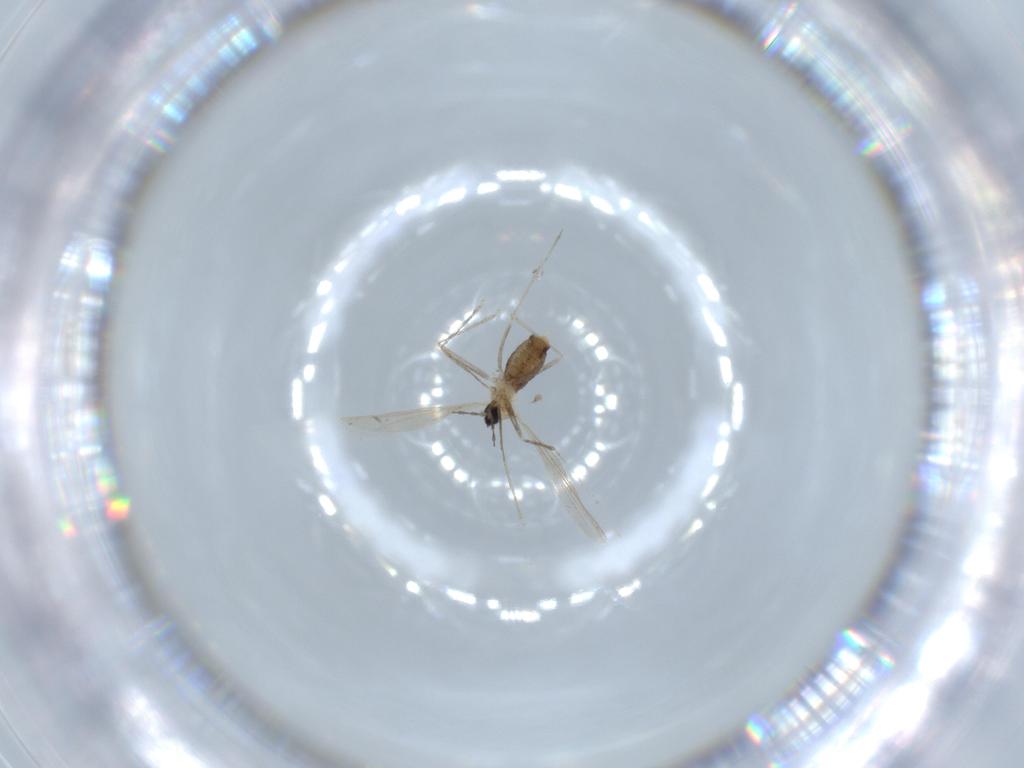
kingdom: Animalia
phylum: Arthropoda
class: Insecta
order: Diptera
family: Cecidomyiidae
